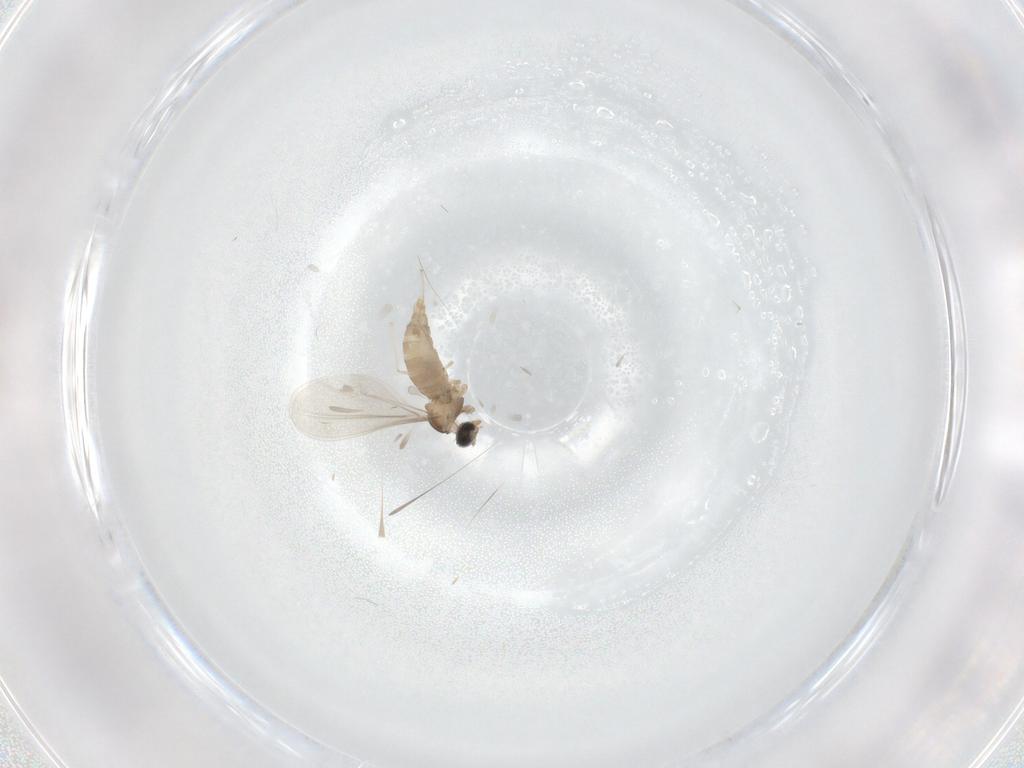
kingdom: Animalia
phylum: Arthropoda
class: Insecta
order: Diptera
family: Cecidomyiidae
